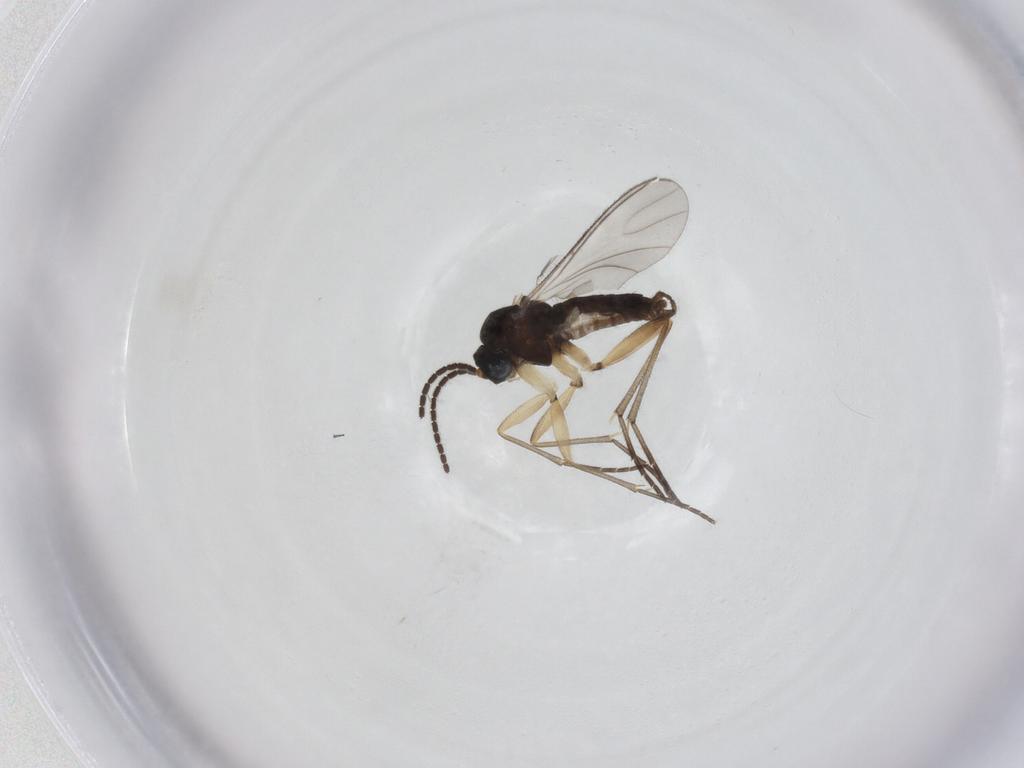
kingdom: Animalia
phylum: Arthropoda
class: Insecta
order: Diptera
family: Sciaridae
